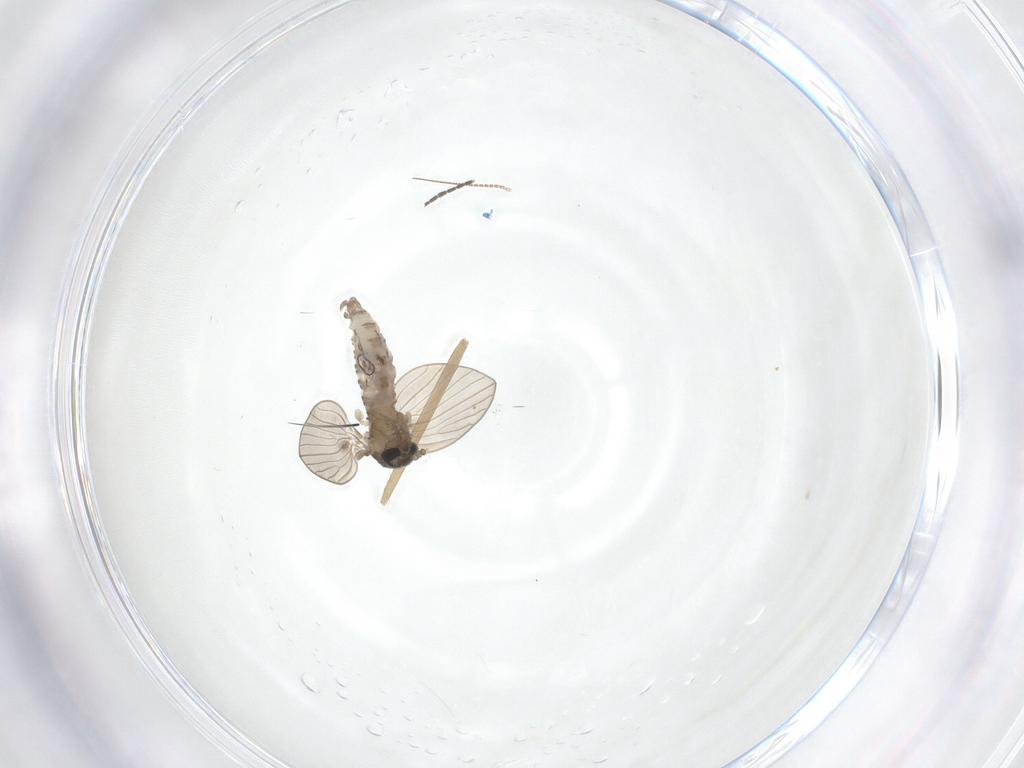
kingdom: Animalia
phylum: Arthropoda
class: Insecta
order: Diptera
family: Psychodidae
